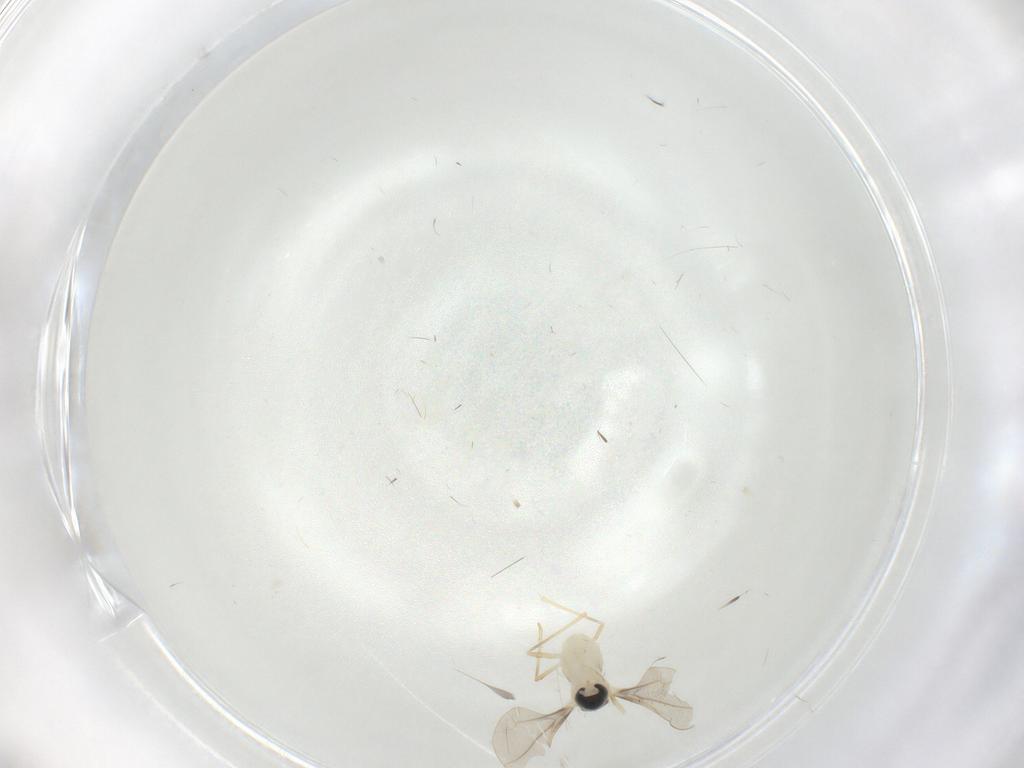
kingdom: Animalia
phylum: Arthropoda
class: Insecta
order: Diptera
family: Cecidomyiidae
